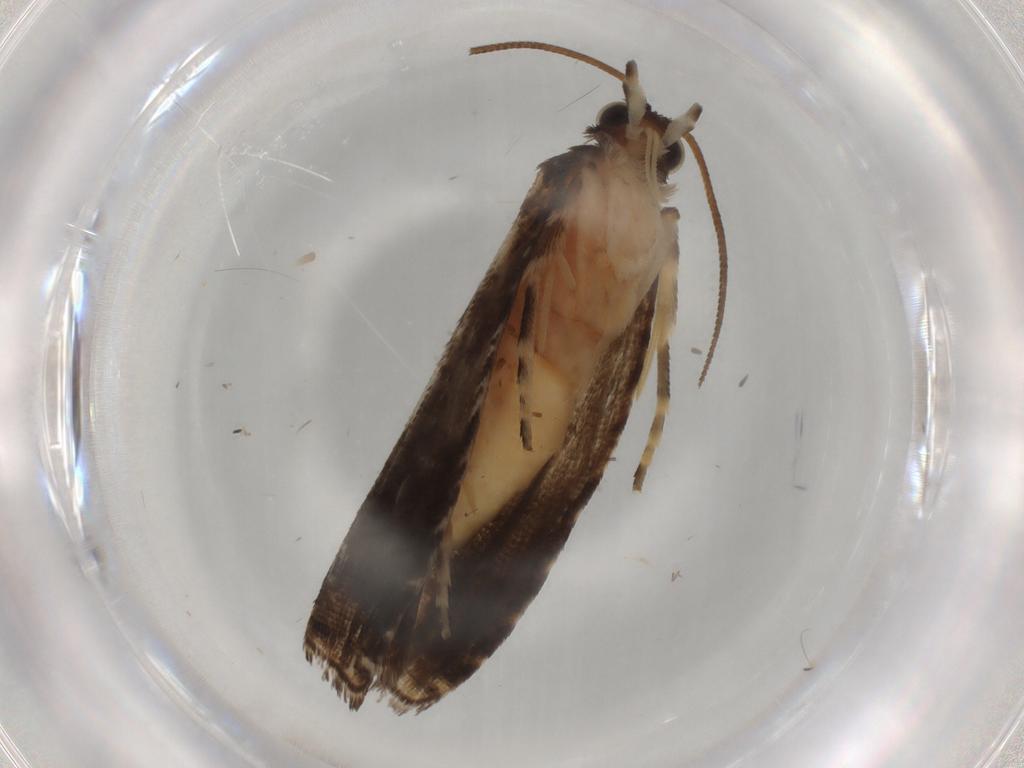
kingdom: Animalia
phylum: Arthropoda
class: Insecta
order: Lepidoptera
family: Tortricidae
